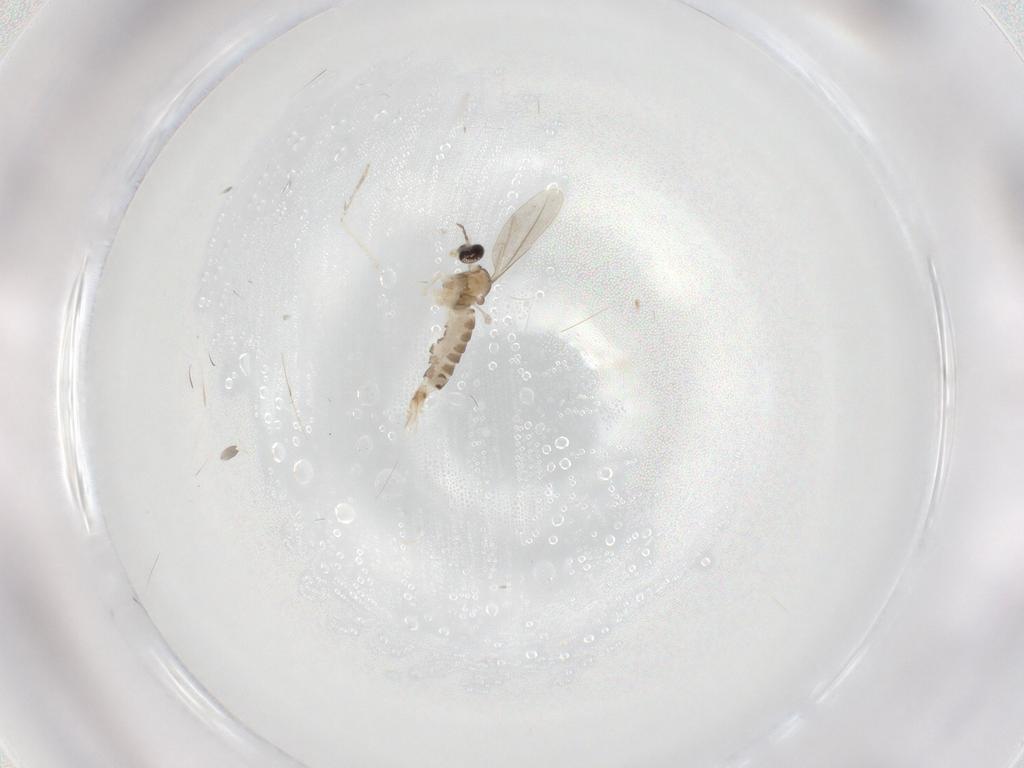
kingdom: Animalia
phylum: Arthropoda
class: Insecta
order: Diptera
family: Cecidomyiidae
